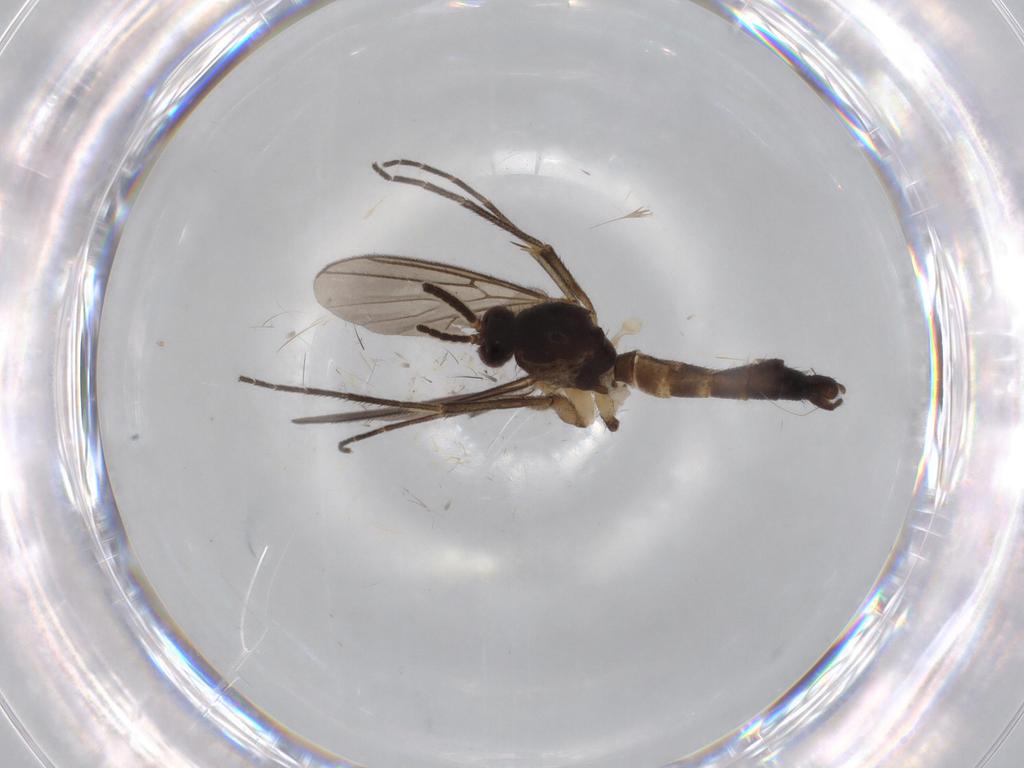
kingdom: Animalia
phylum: Arthropoda
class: Insecta
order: Diptera
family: Mycetophilidae
